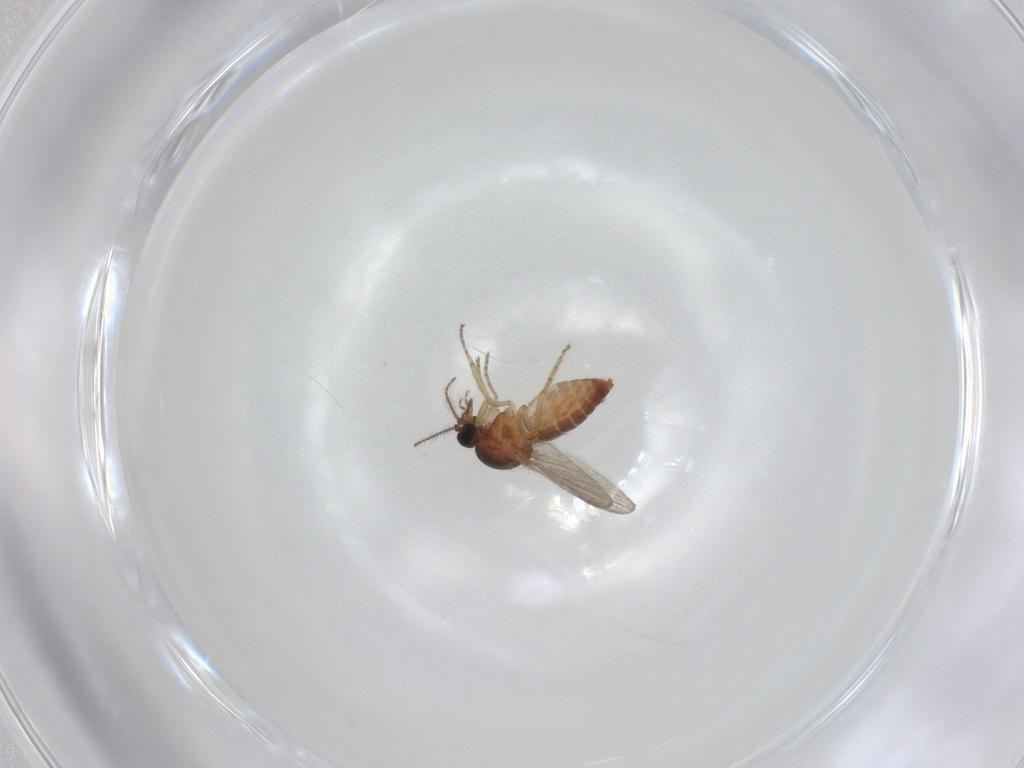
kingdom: Animalia
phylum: Arthropoda
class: Insecta
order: Diptera
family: Ceratopogonidae
